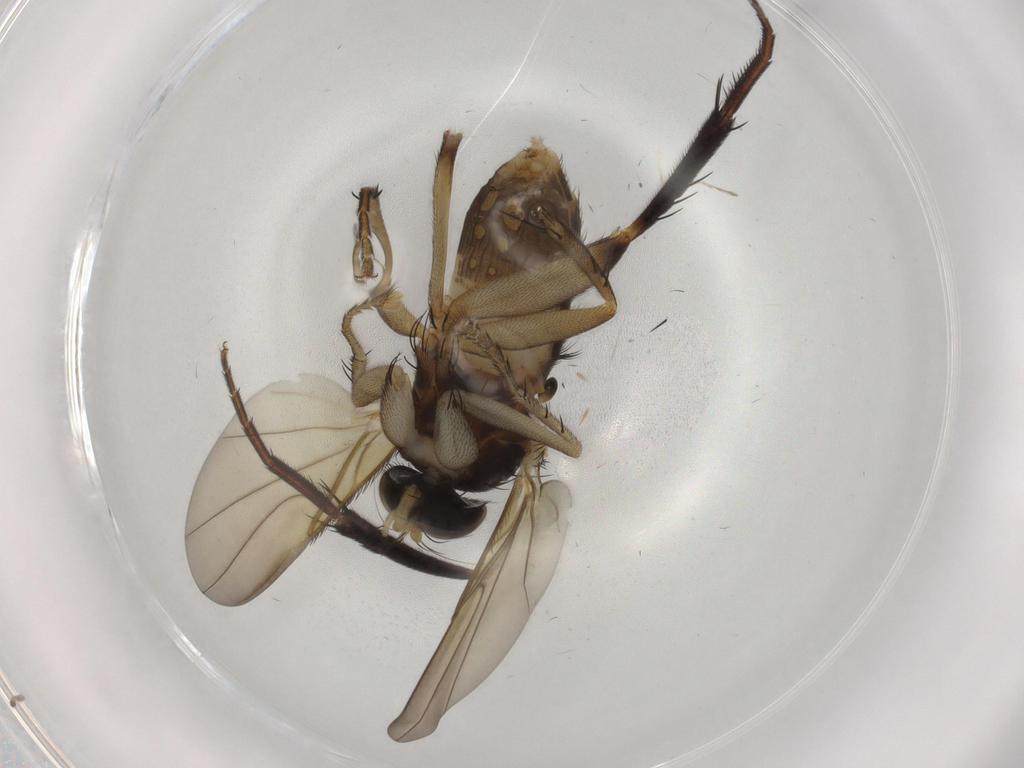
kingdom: Animalia
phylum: Arthropoda
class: Insecta
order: Diptera
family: Phoridae
